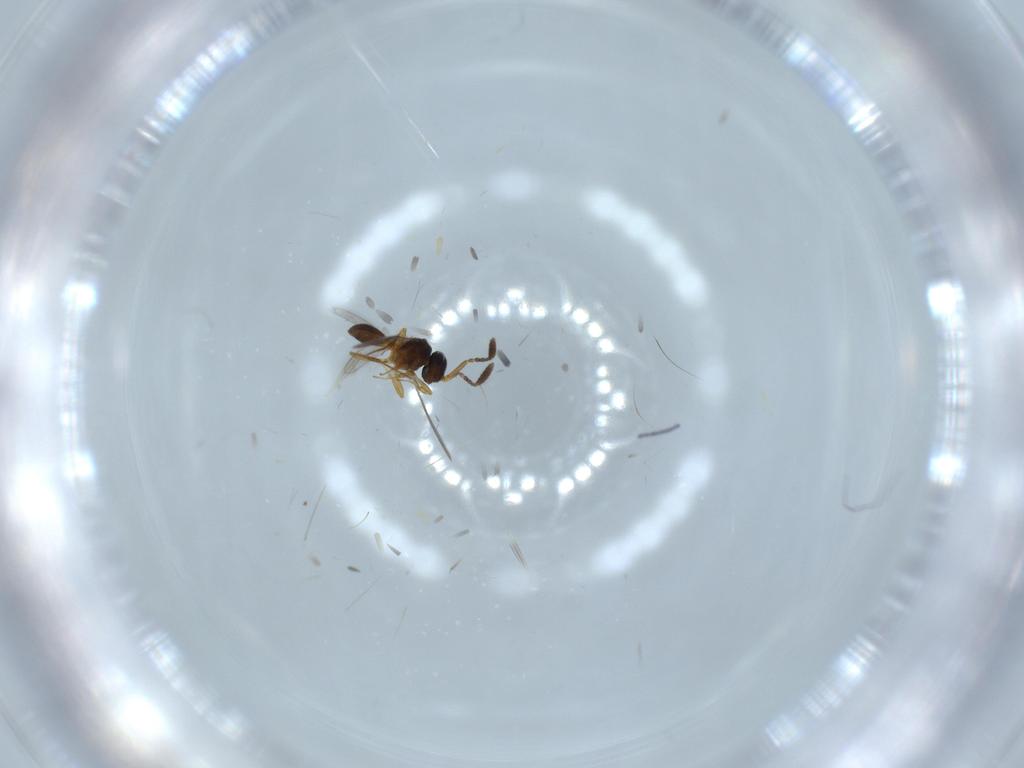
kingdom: Animalia
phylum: Arthropoda
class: Insecta
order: Hymenoptera
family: Scelionidae
